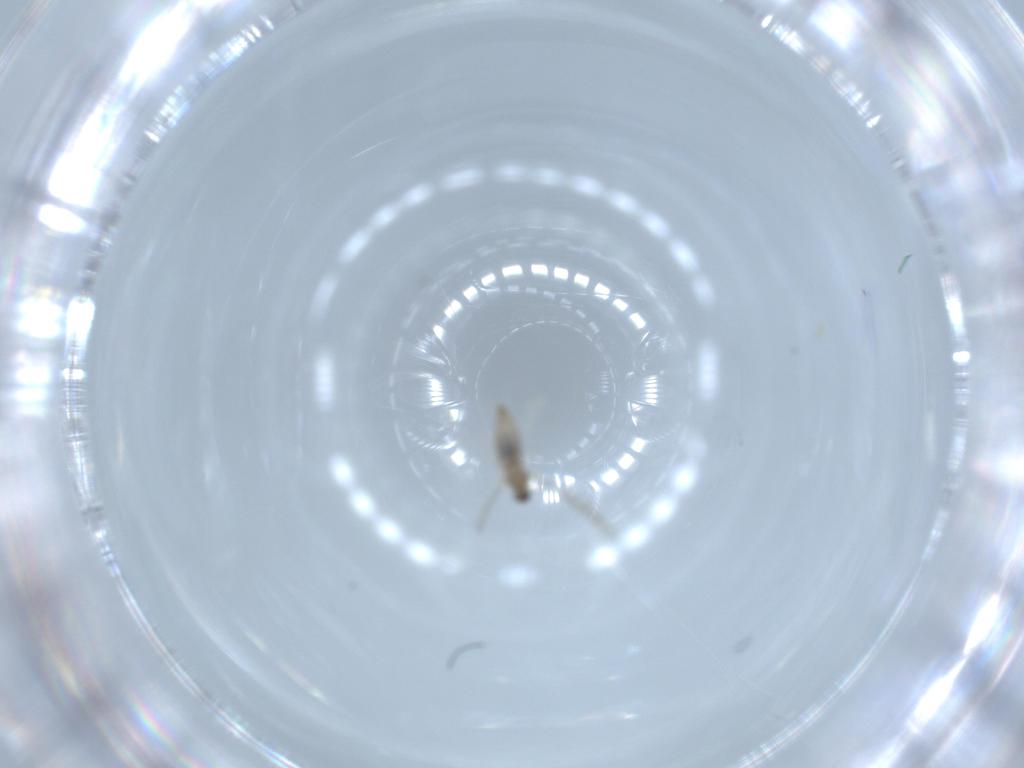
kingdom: Animalia
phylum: Arthropoda
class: Insecta
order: Diptera
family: Cecidomyiidae
